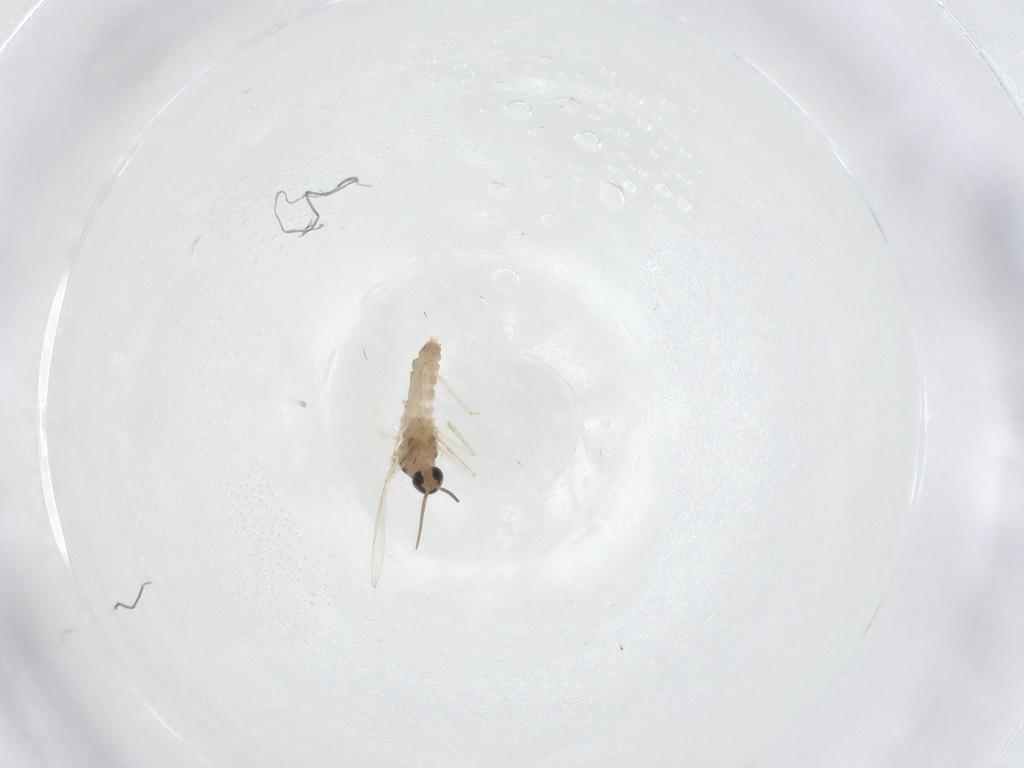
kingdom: Animalia
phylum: Arthropoda
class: Insecta
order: Diptera
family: Cecidomyiidae
